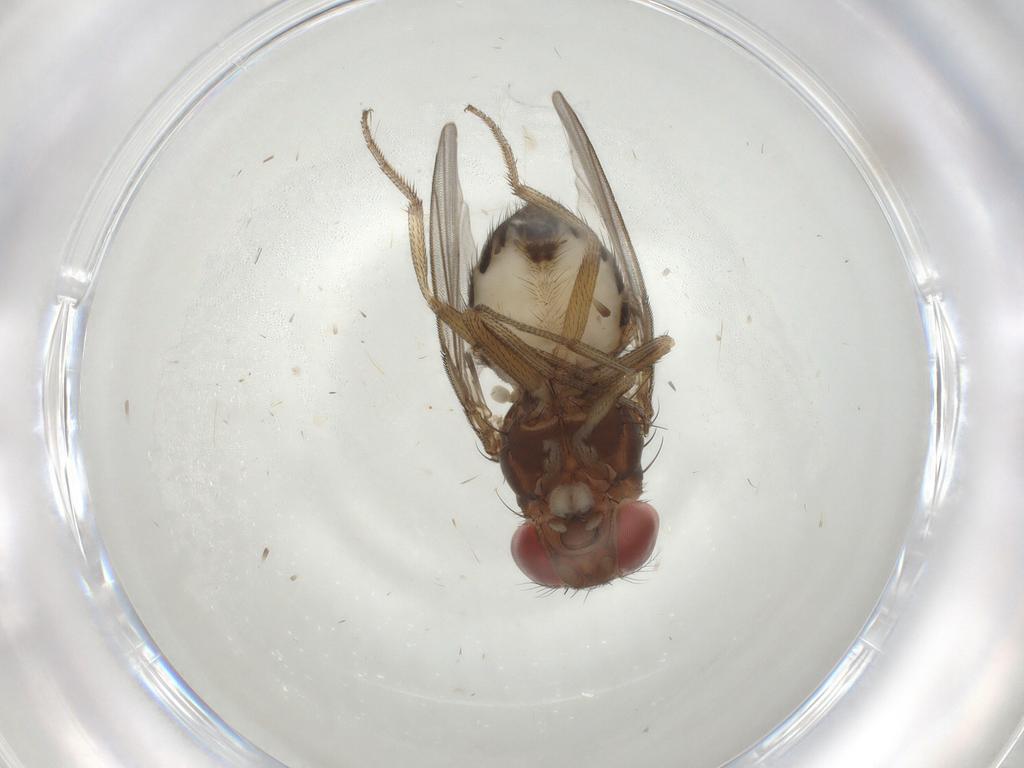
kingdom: Animalia
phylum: Arthropoda
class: Insecta
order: Diptera
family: Drosophilidae
